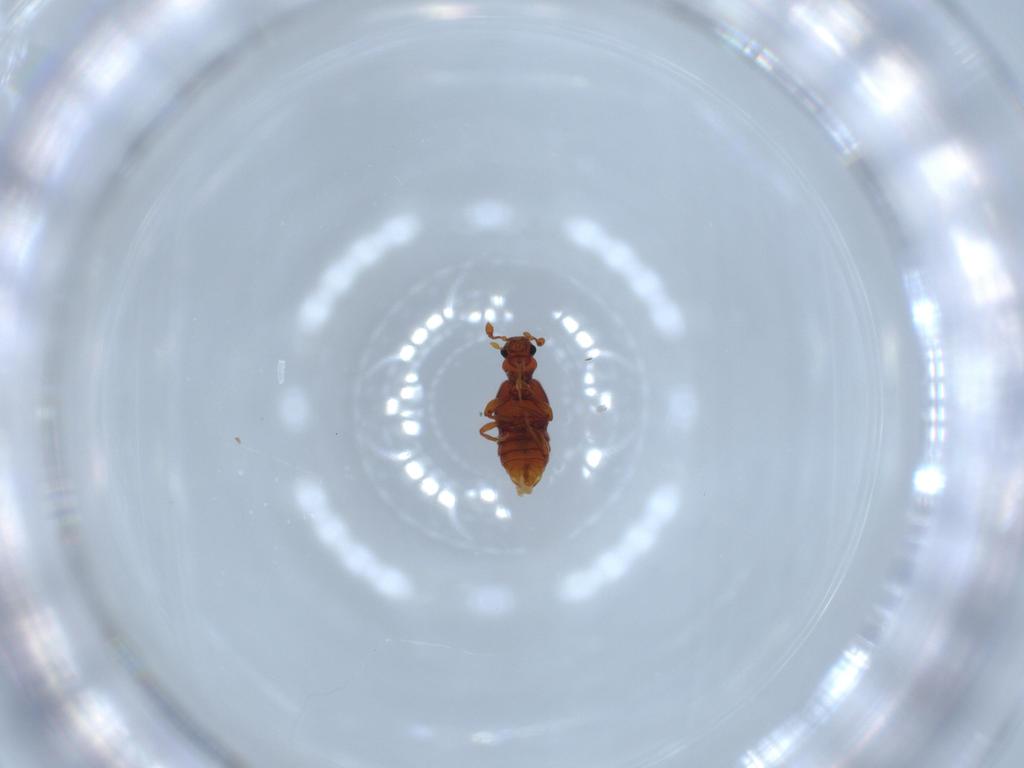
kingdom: Animalia
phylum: Arthropoda
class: Insecta
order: Coleoptera
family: Staphylinidae
